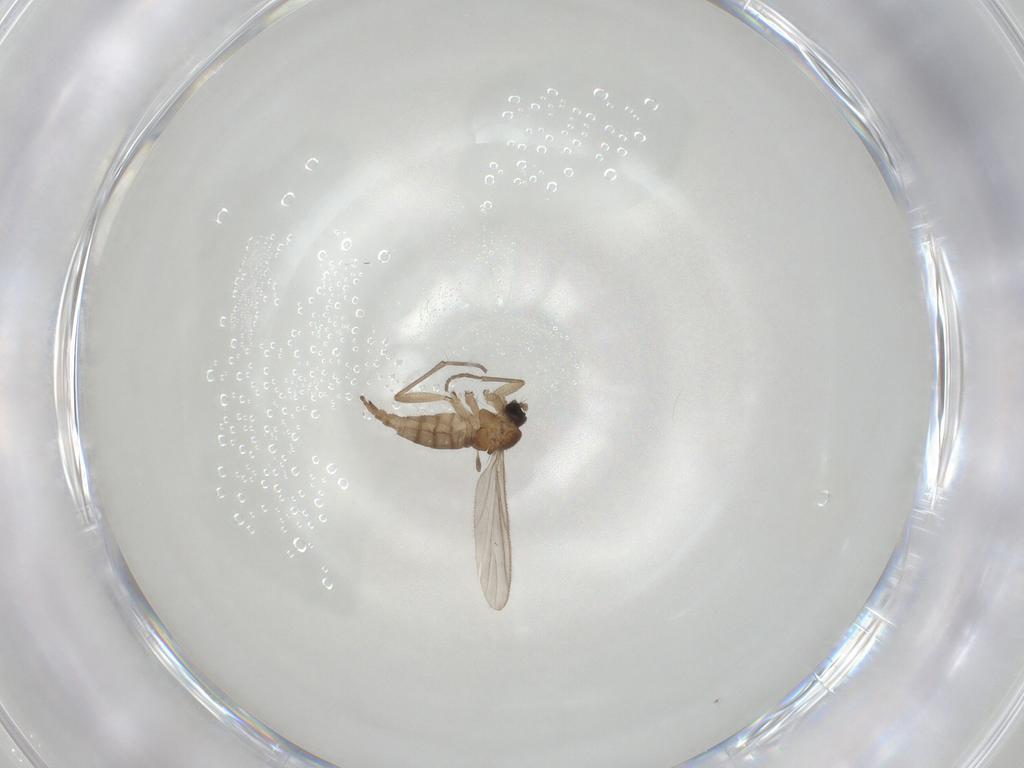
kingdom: Animalia
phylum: Arthropoda
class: Insecta
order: Diptera
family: Sciaridae
